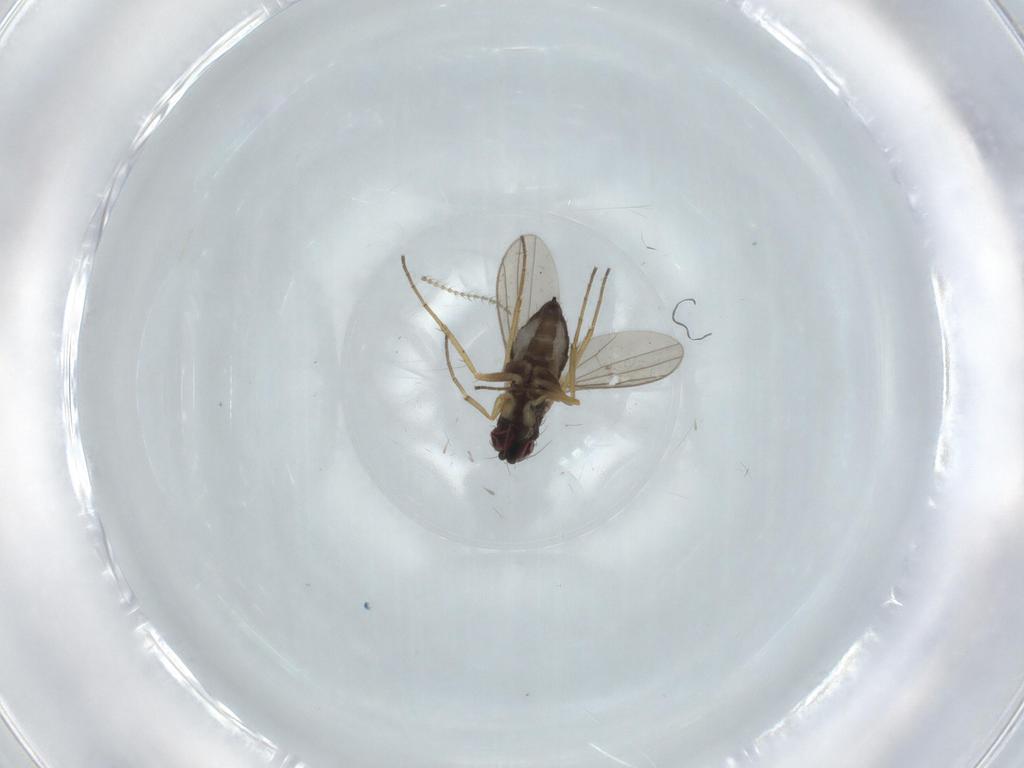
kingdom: Animalia
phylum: Arthropoda
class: Insecta
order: Diptera
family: Dolichopodidae
